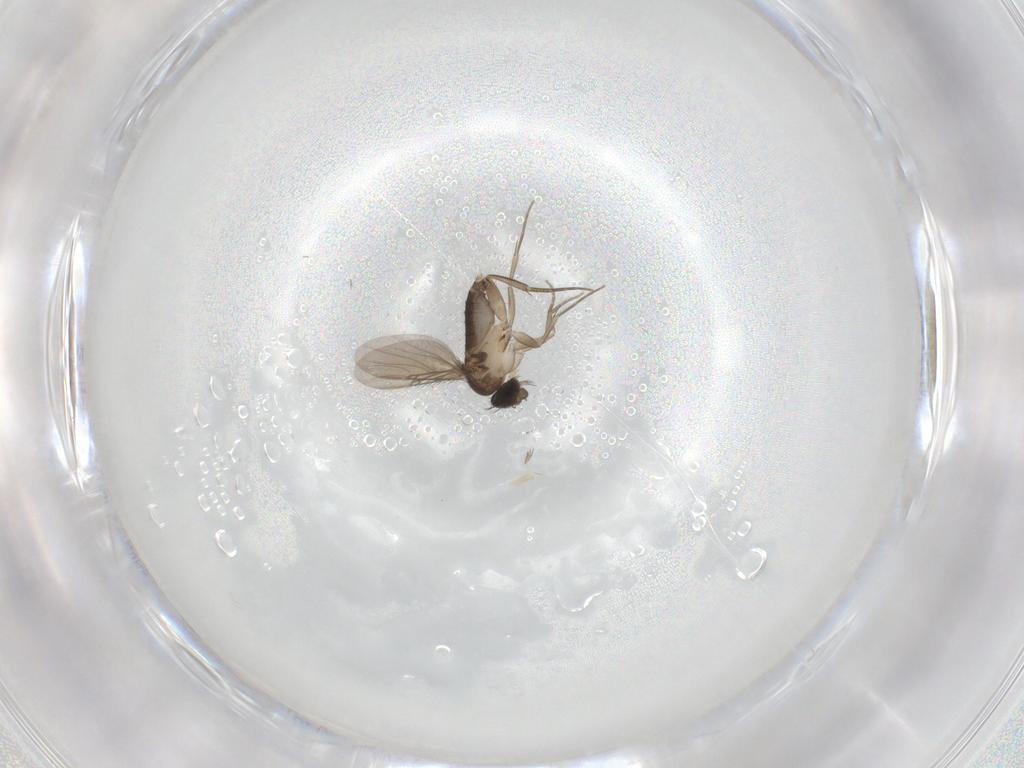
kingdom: Animalia
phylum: Arthropoda
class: Insecta
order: Diptera
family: Phoridae
